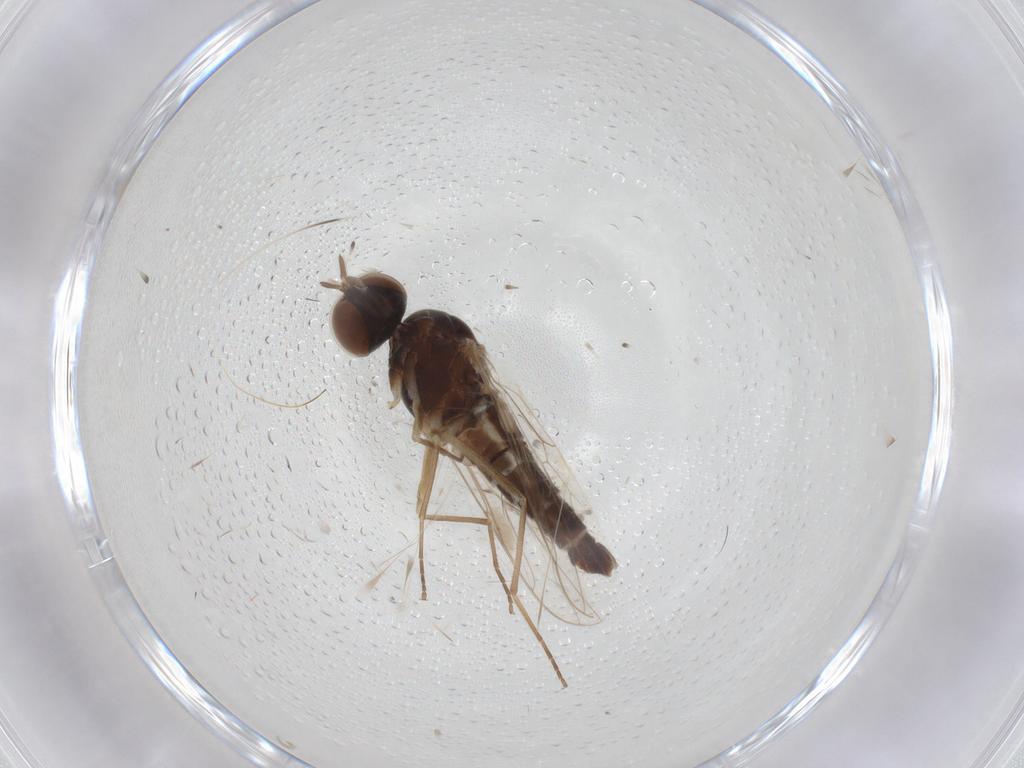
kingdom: Animalia
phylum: Arthropoda
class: Insecta
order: Diptera
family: Scenopinidae
